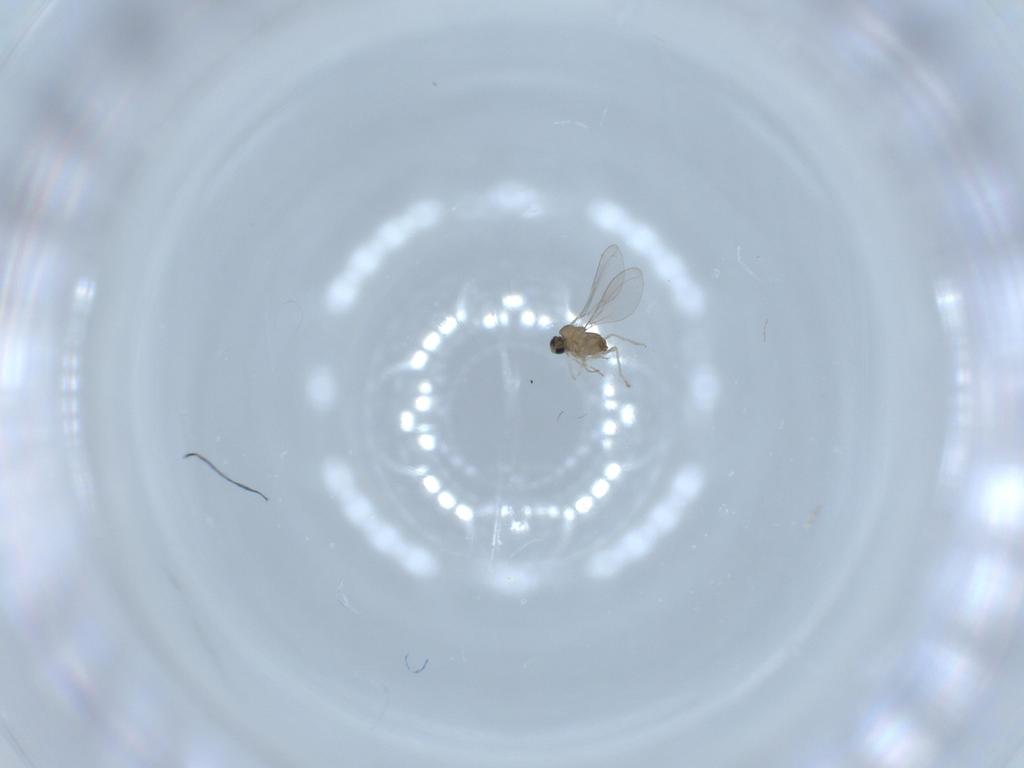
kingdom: Animalia
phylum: Arthropoda
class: Insecta
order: Diptera
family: Cecidomyiidae
